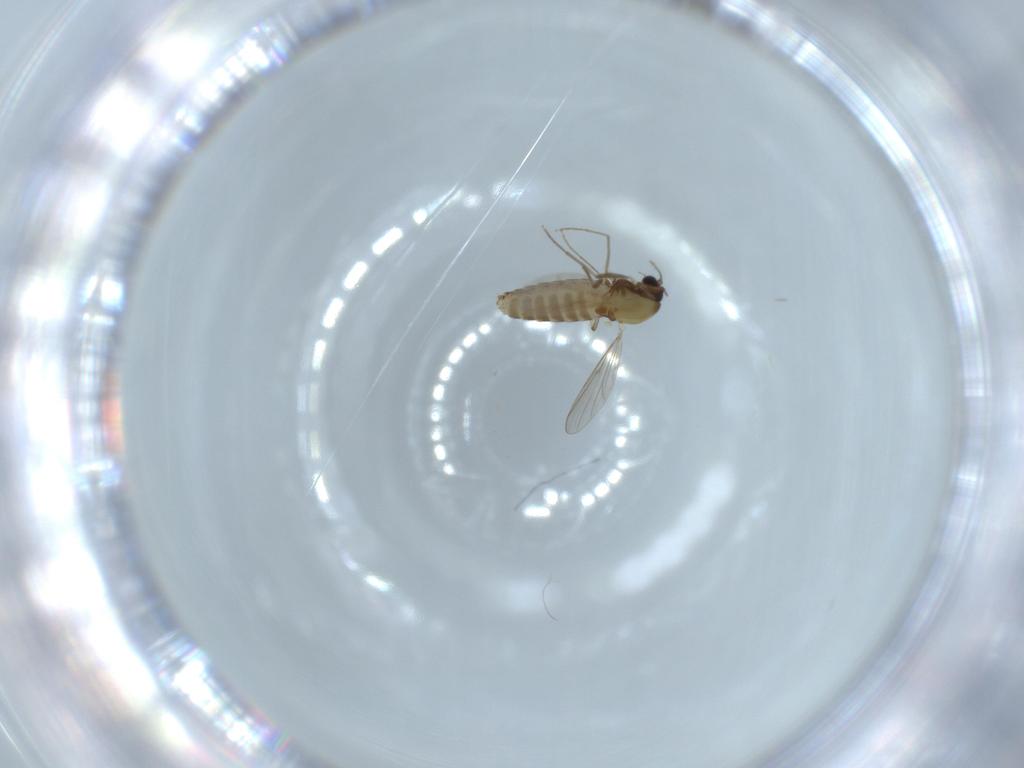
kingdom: Animalia
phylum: Arthropoda
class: Insecta
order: Diptera
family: Chironomidae
